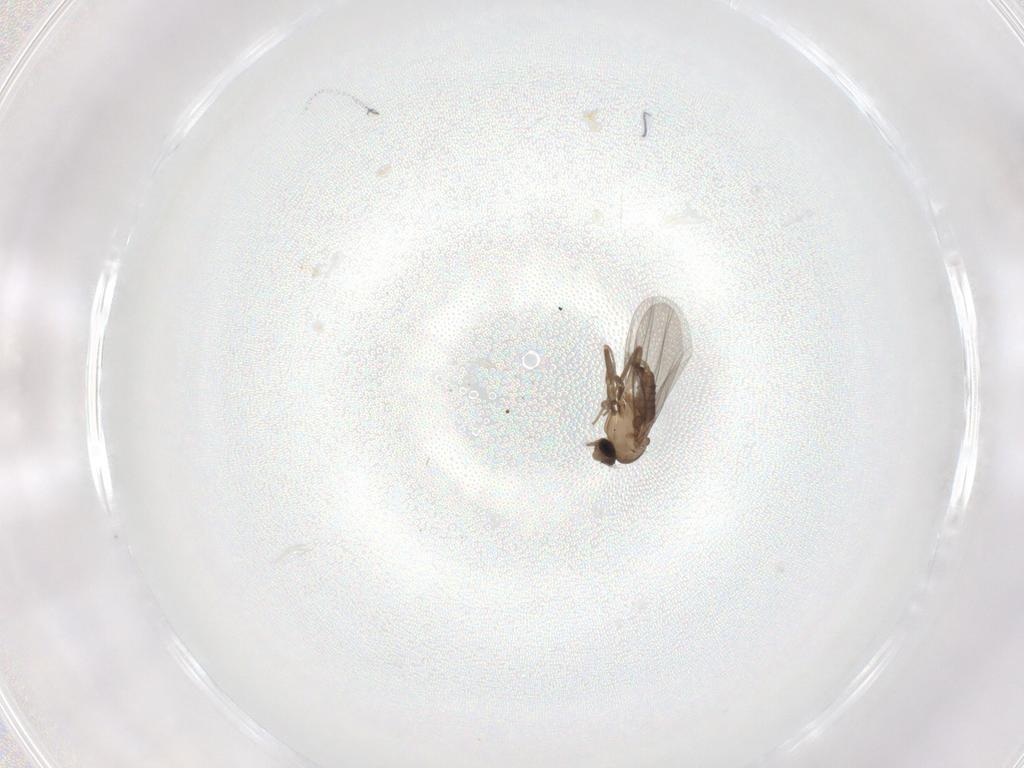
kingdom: Animalia
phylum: Arthropoda
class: Insecta
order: Diptera
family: Chironomidae
